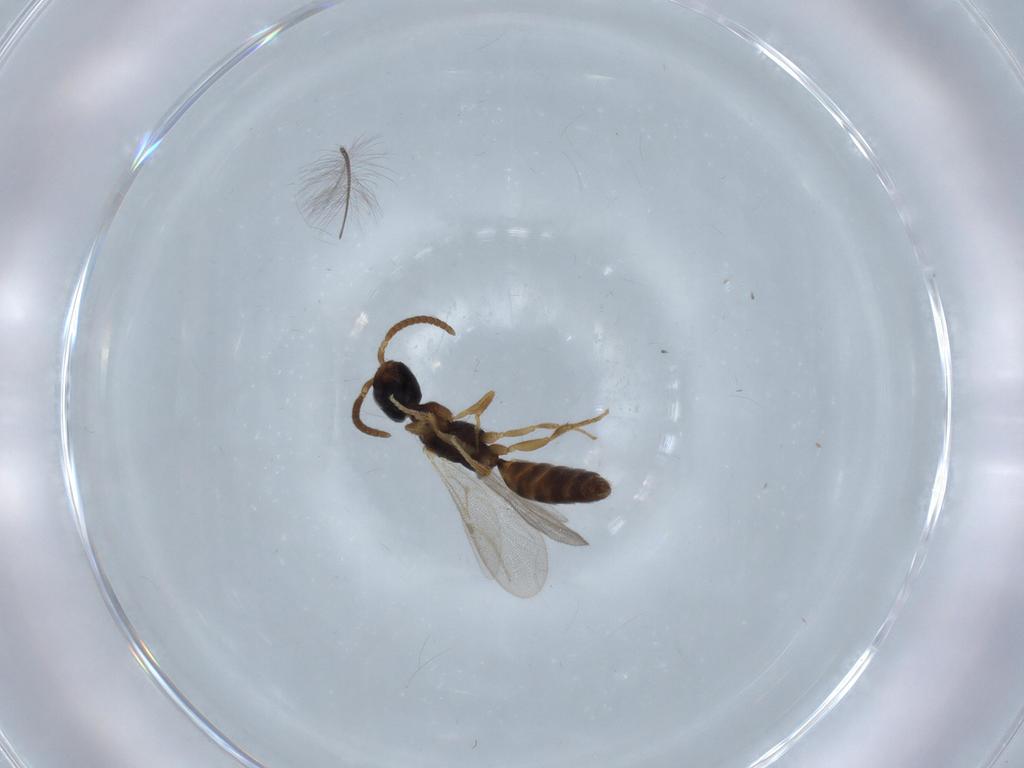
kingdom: Animalia
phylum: Arthropoda
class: Insecta
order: Hymenoptera
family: Bethylidae
